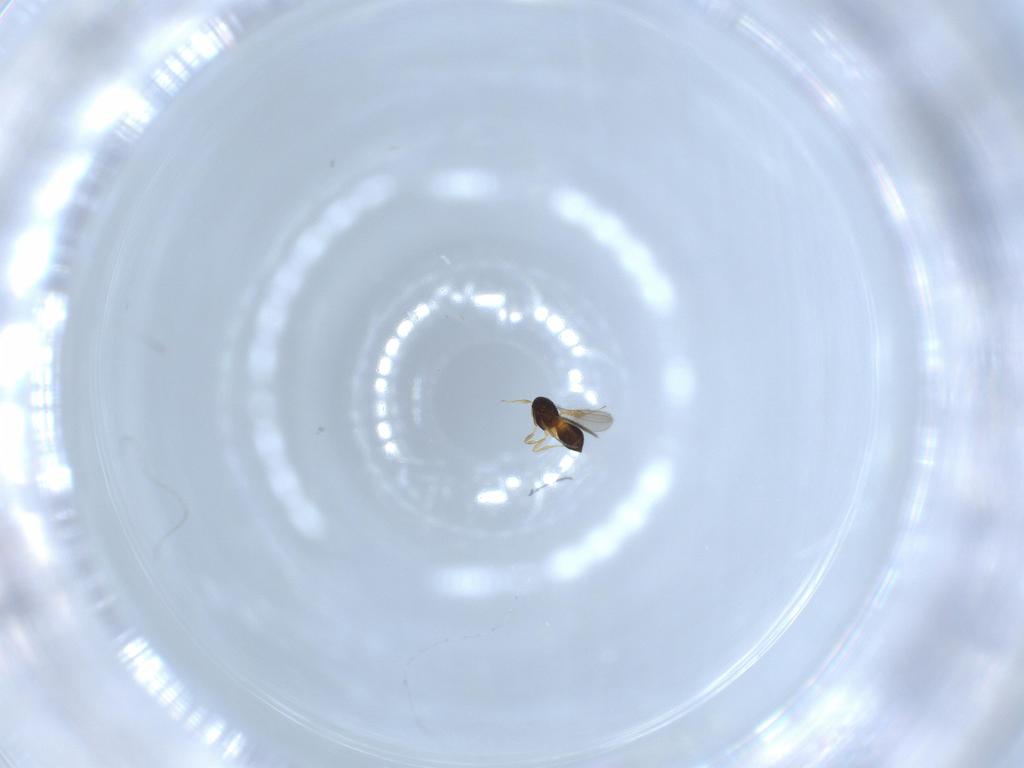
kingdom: Animalia
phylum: Arthropoda
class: Insecta
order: Hymenoptera
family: Scelionidae
